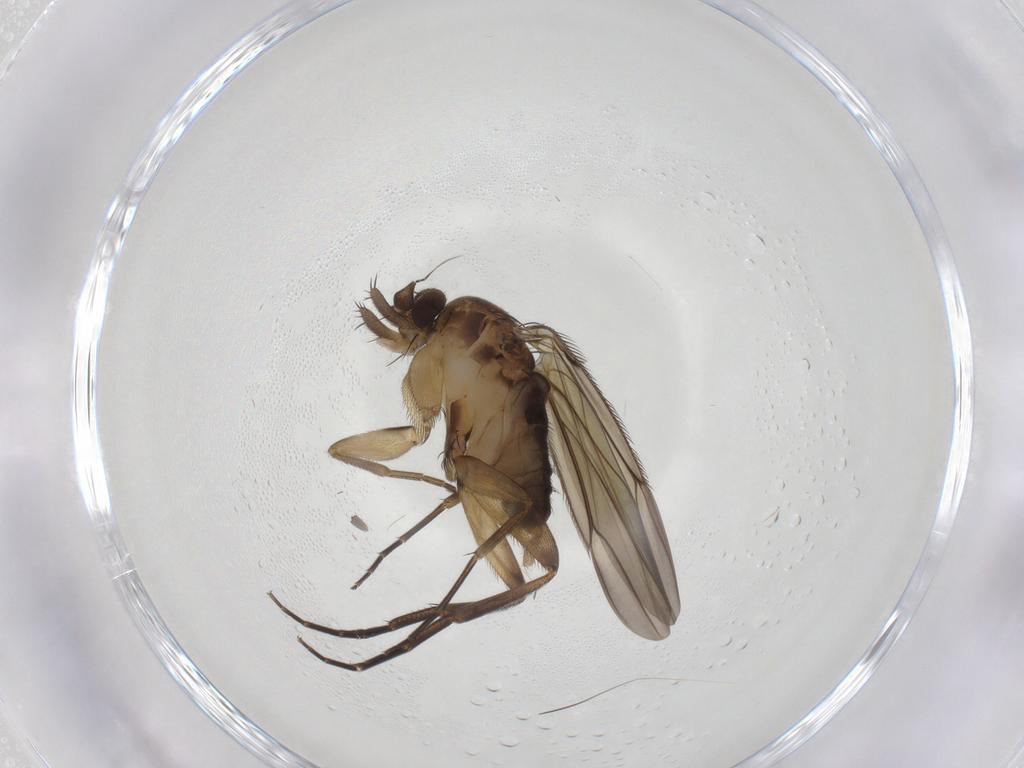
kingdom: Animalia
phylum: Arthropoda
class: Insecta
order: Diptera
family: Phoridae
